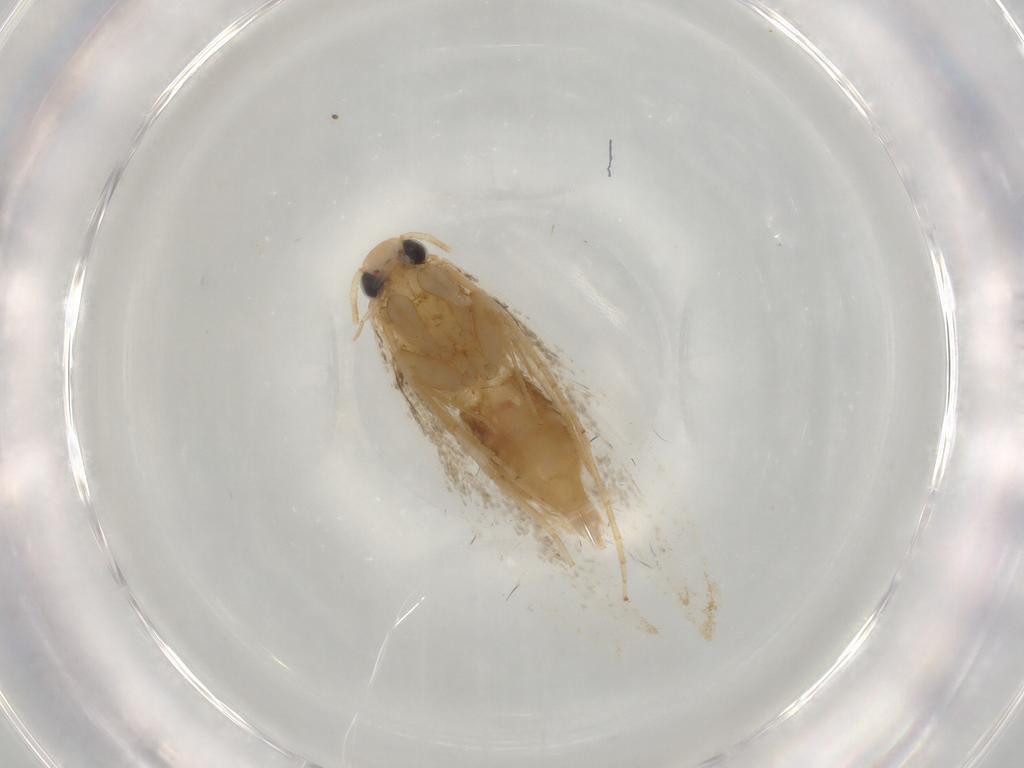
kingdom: Animalia
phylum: Arthropoda
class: Insecta
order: Lepidoptera
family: Cosmopterigidae
